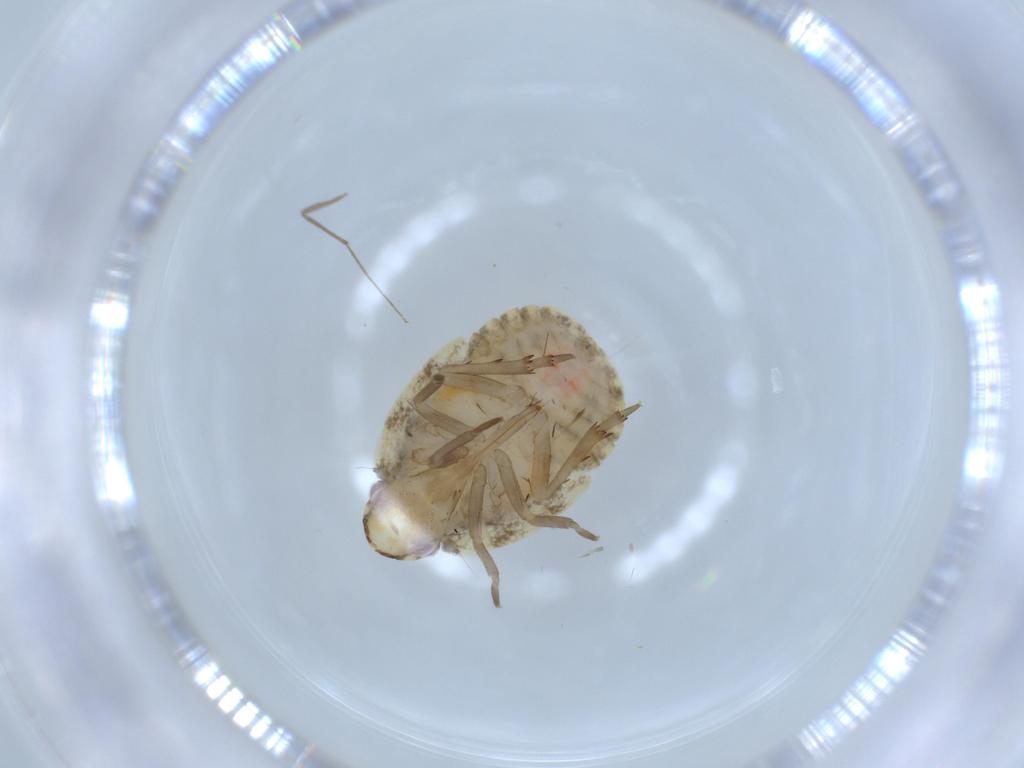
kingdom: Animalia
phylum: Arthropoda
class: Insecta
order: Hemiptera
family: Flatidae
